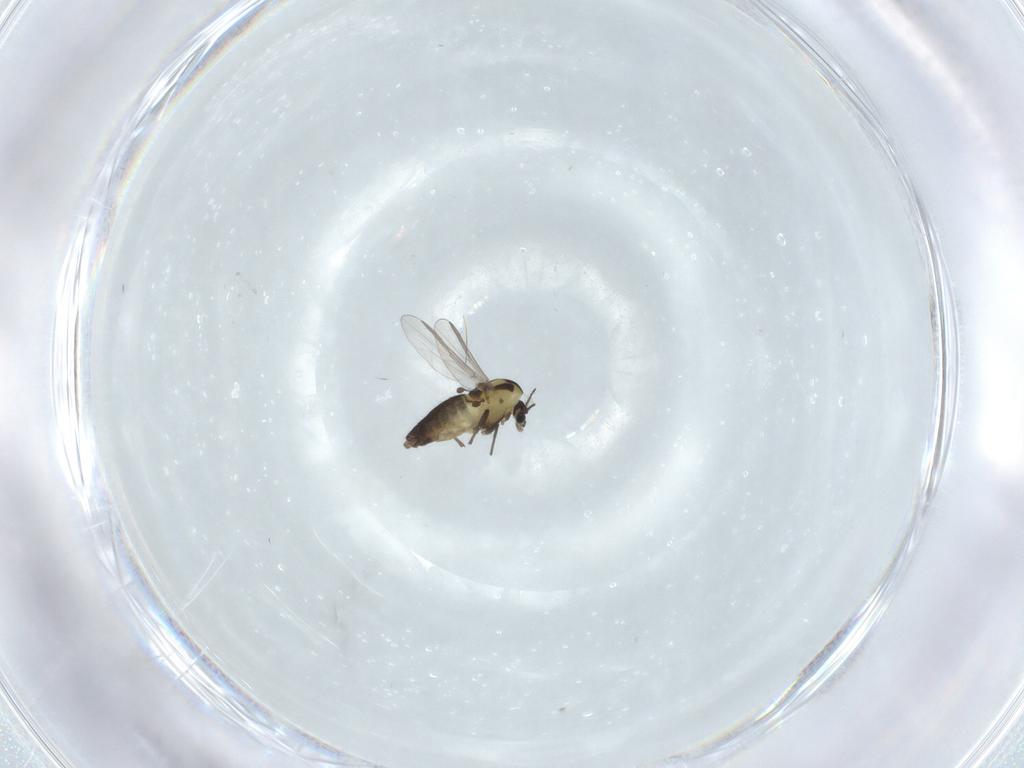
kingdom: Animalia
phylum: Arthropoda
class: Insecta
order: Diptera
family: Chironomidae
